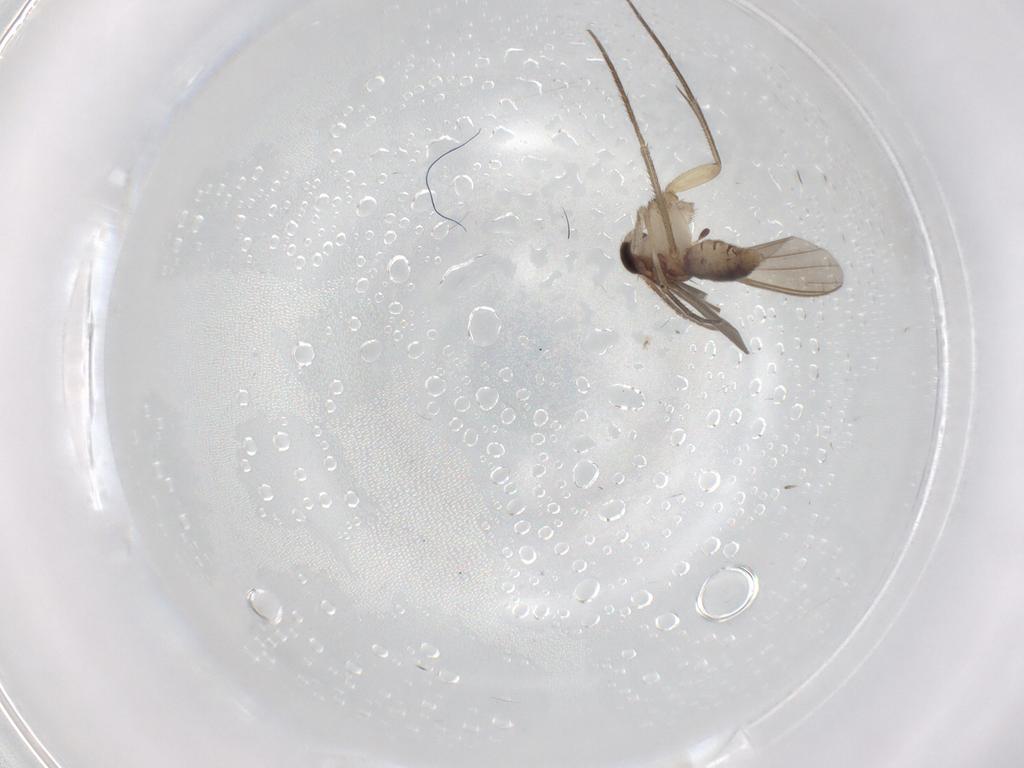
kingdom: Animalia
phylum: Arthropoda
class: Insecta
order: Diptera
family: Mycetophilidae
